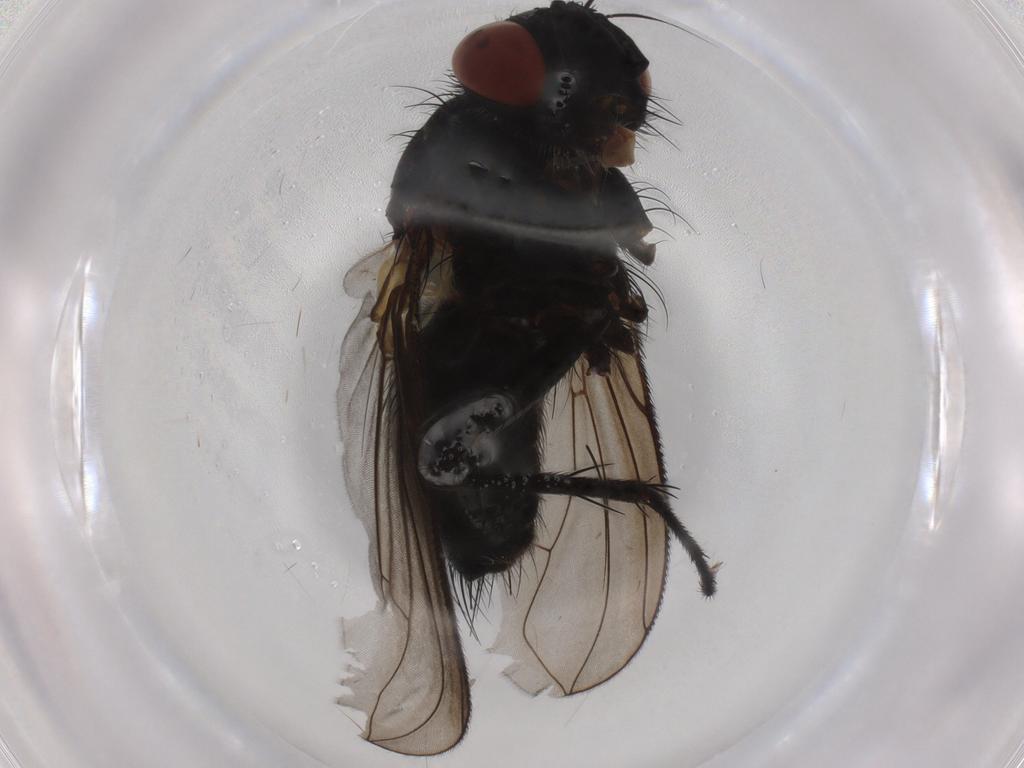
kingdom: Animalia
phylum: Arthropoda
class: Insecta
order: Diptera
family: Tachinidae
